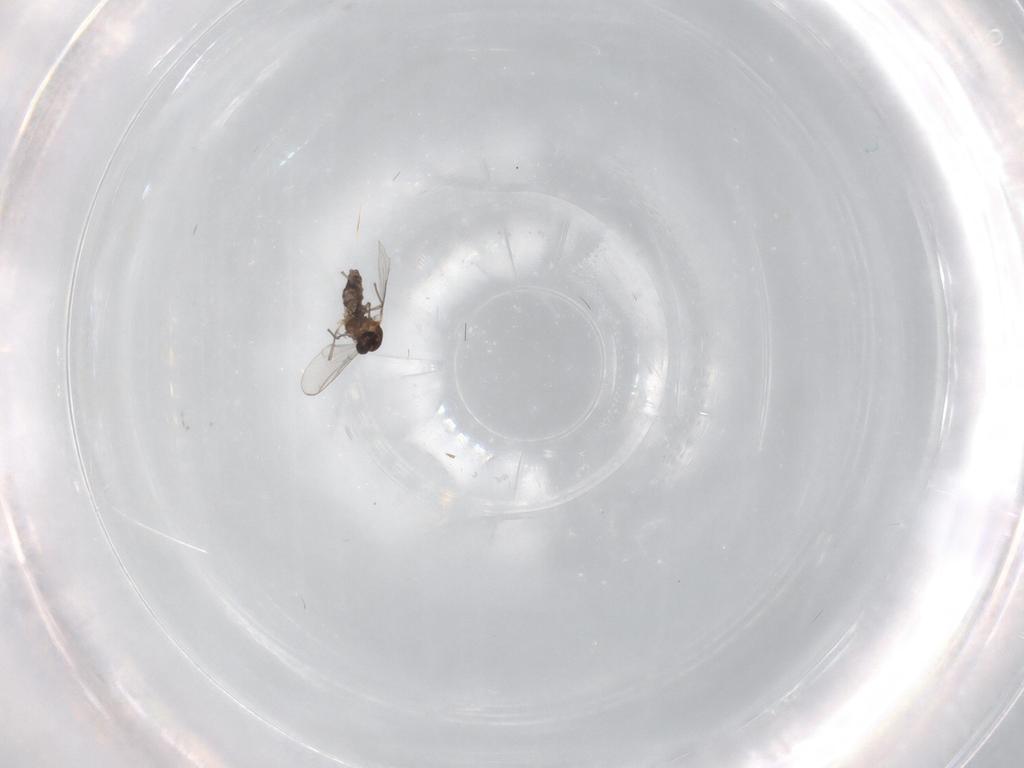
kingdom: Animalia
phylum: Arthropoda
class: Insecta
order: Diptera
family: Chironomidae
